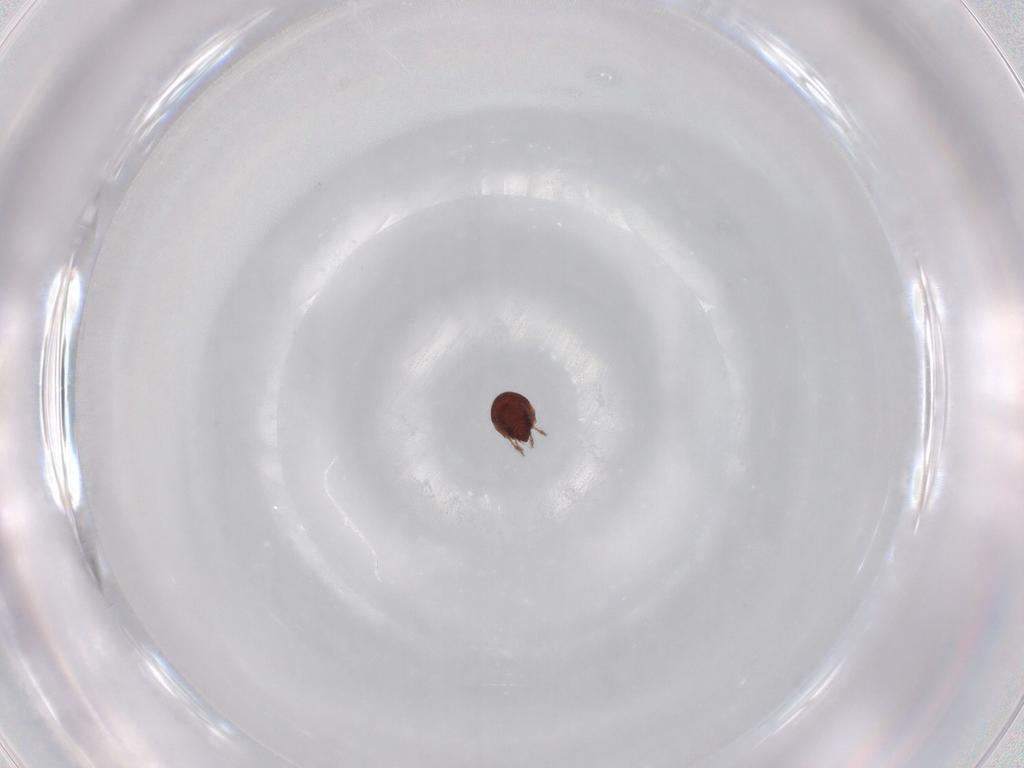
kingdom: Animalia
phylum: Arthropoda
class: Arachnida
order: Sarcoptiformes
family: Ceratozetidae
